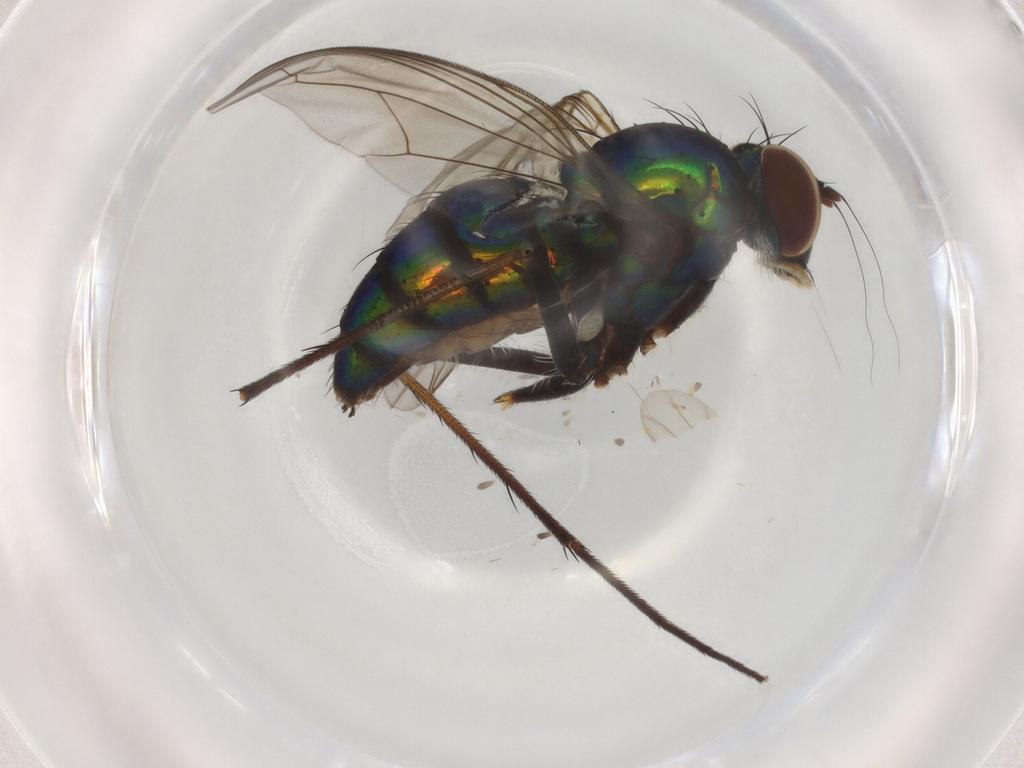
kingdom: Animalia
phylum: Arthropoda
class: Insecta
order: Diptera
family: Dolichopodidae
